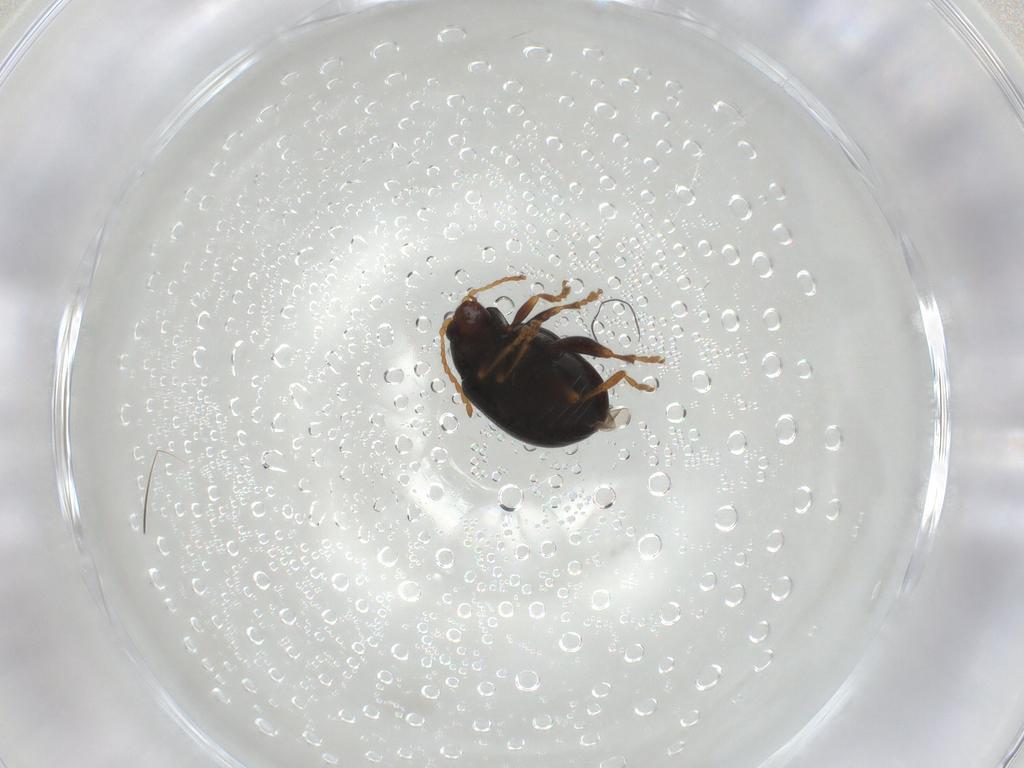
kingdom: Animalia
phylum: Arthropoda
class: Insecta
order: Coleoptera
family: Chrysomelidae
